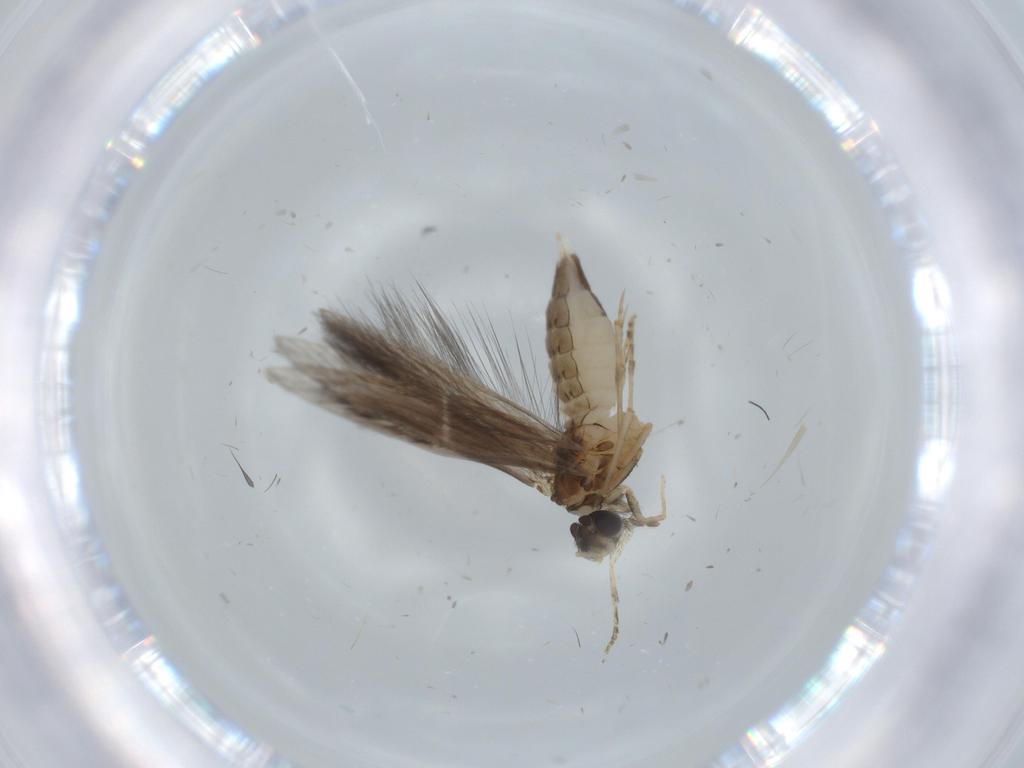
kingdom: Animalia
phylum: Arthropoda
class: Insecta
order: Trichoptera
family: Hydroptilidae
